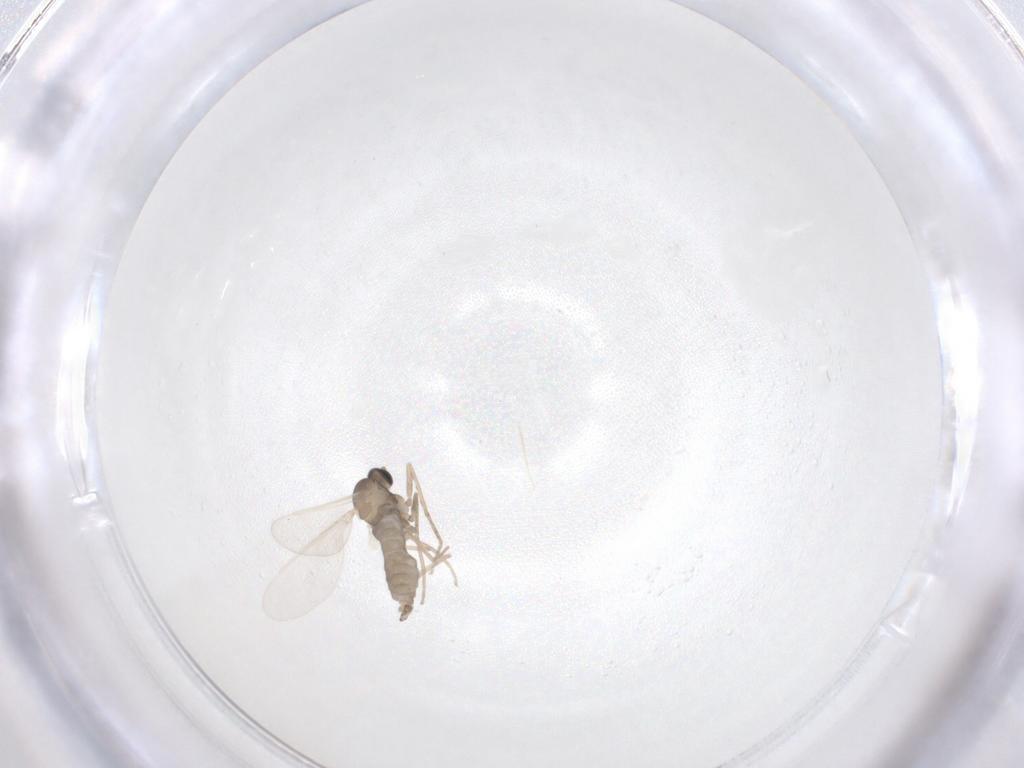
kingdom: Animalia
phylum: Arthropoda
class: Insecta
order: Diptera
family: Cecidomyiidae
